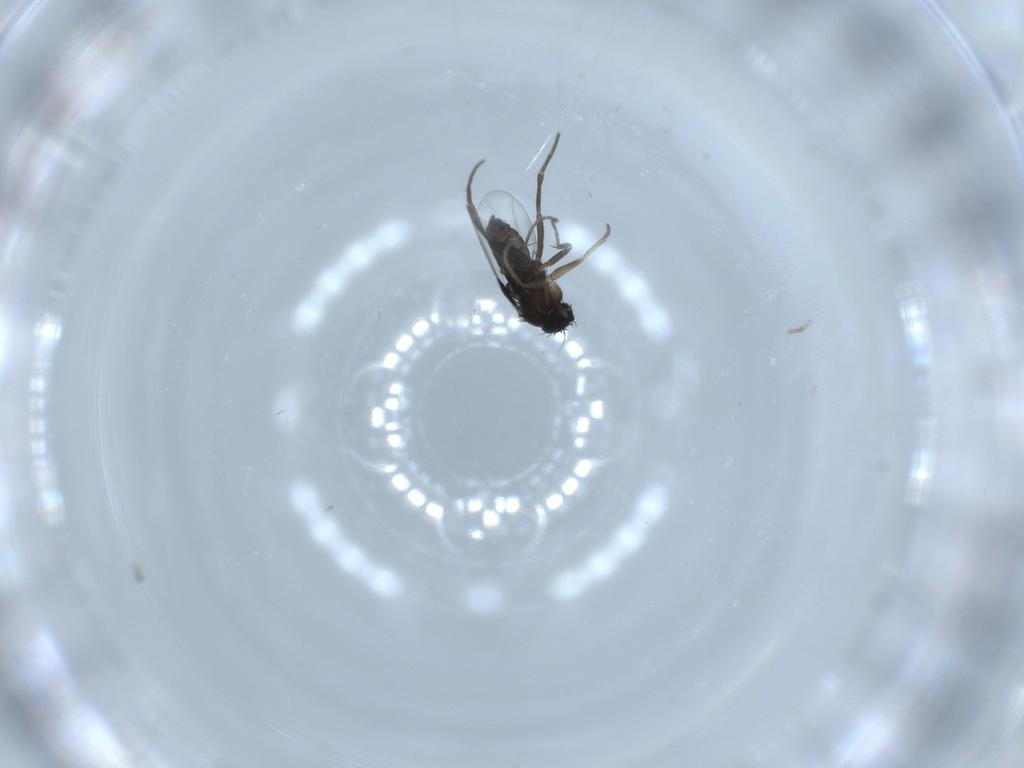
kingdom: Animalia
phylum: Arthropoda
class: Insecta
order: Diptera
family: Phoridae
